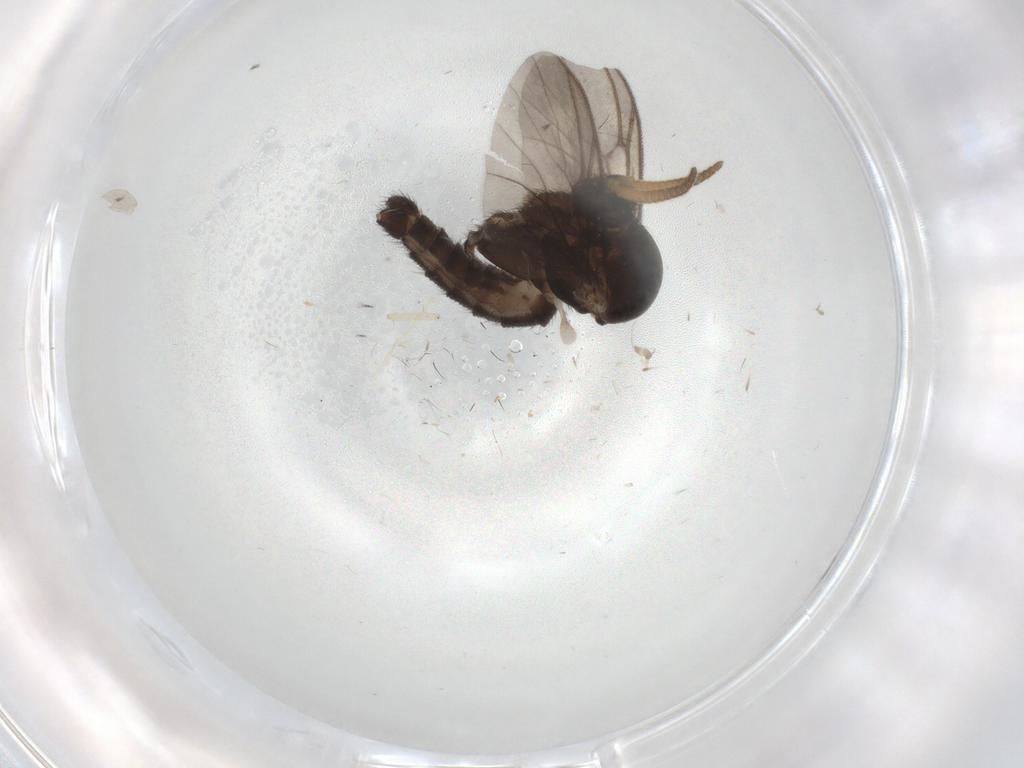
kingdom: Animalia
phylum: Arthropoda
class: Insecta
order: Diptera
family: Mycetophilidae
